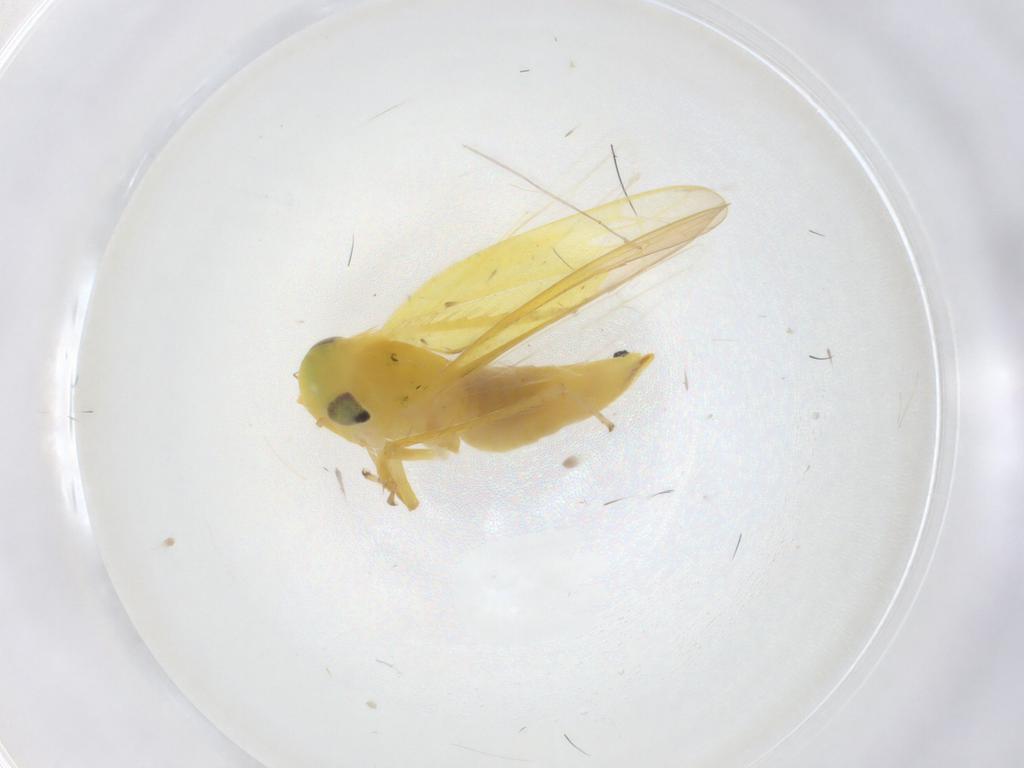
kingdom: Animalia
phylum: Arthropoda
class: Insecta
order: Hemiptera
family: Cicadellidae
